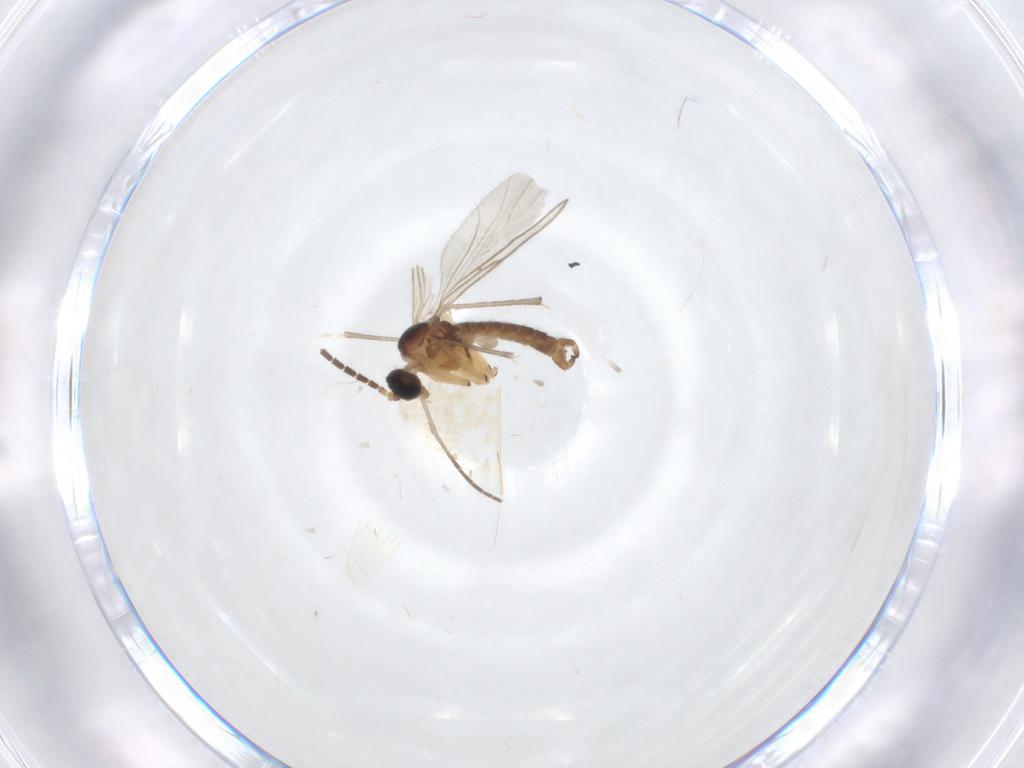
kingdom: Animalia
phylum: Arthropoda
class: Insecta
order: Diptera
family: Sciaridae
